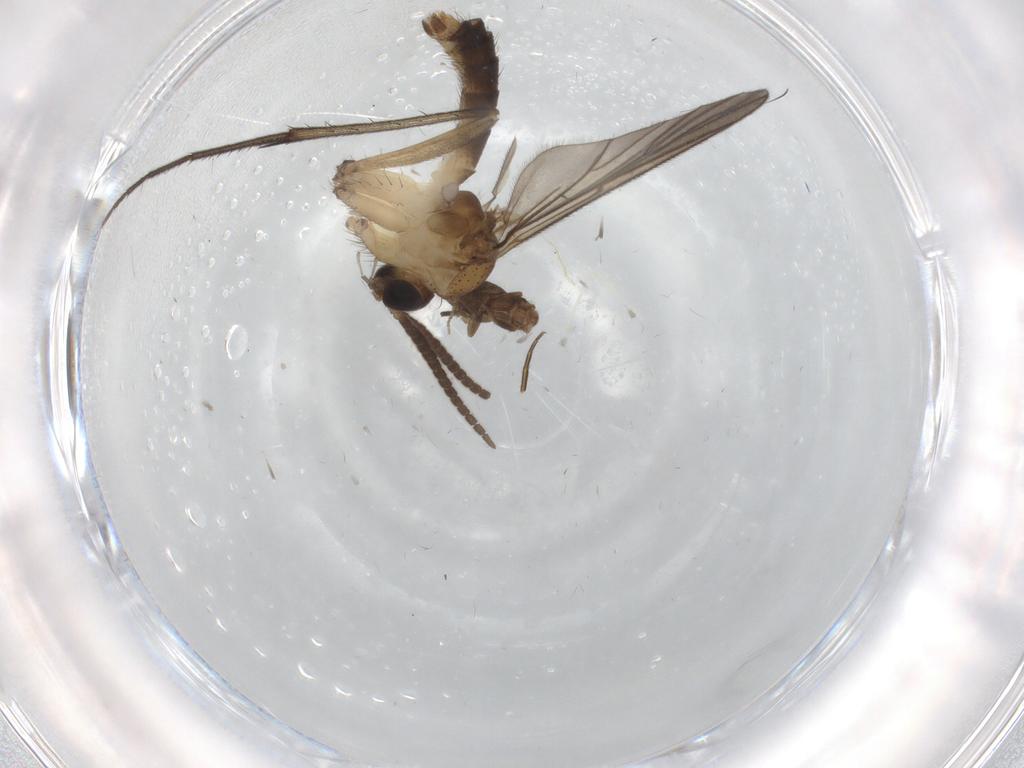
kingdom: Animalia
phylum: Arthropoda
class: Insecta
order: Diptera
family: Mycetophilidae
